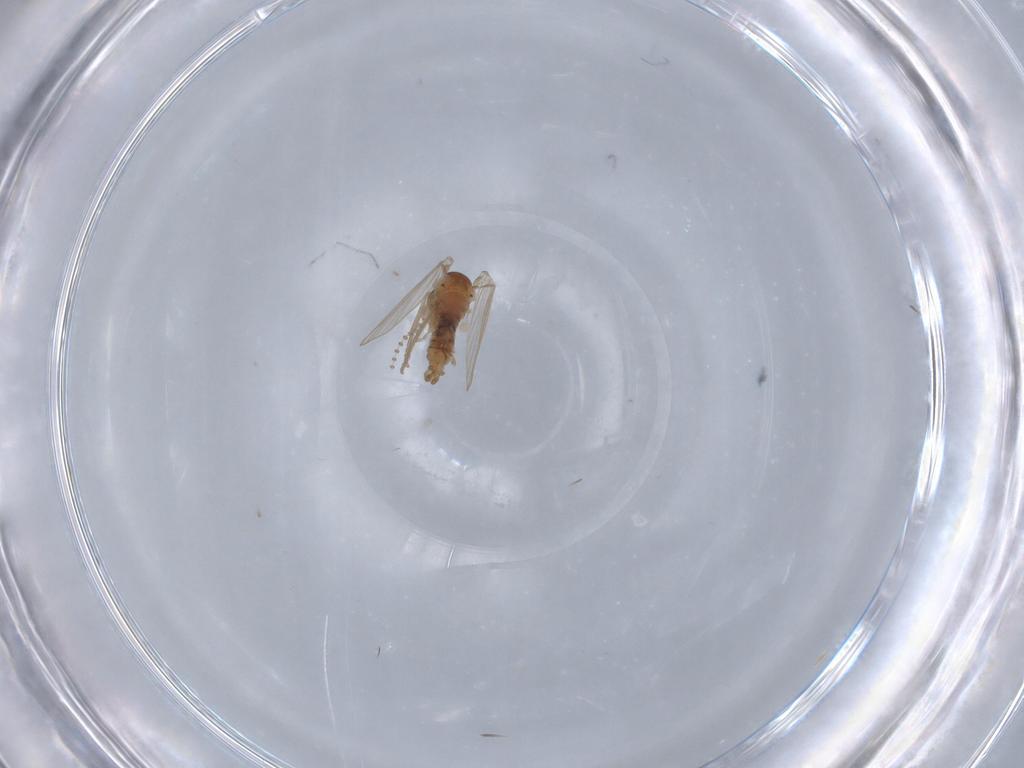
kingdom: Animalia
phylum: Arthropoda
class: Insecta
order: Diptera
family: Psychodidae
